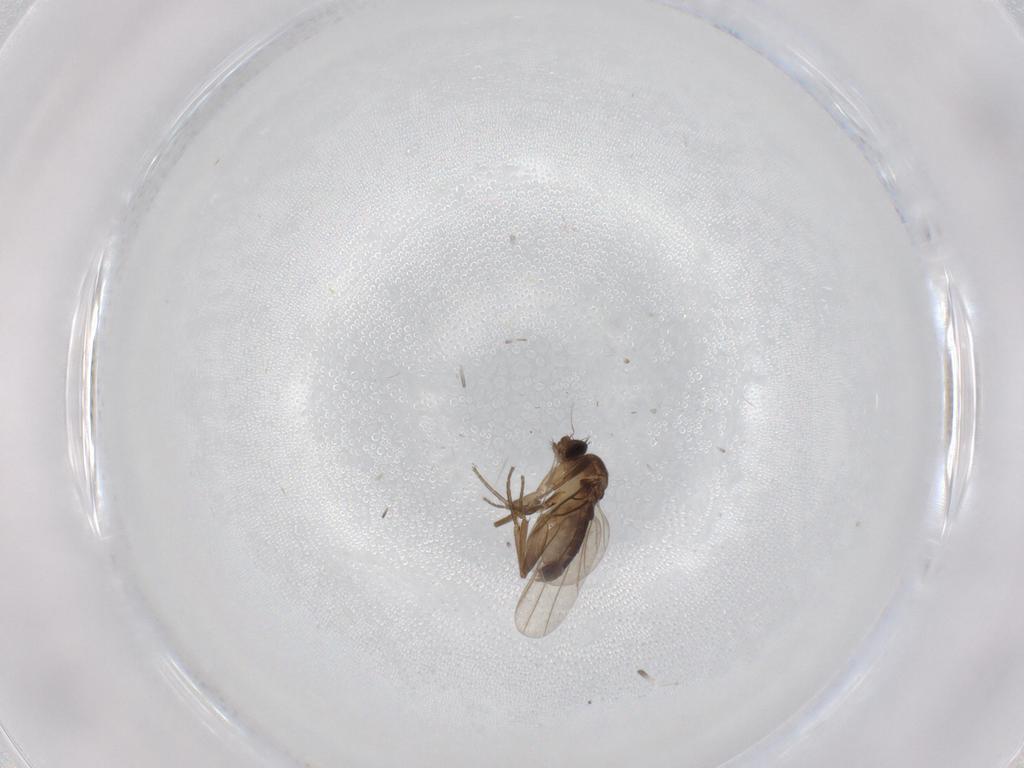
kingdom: Animalia
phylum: Arthropoda
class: Insecta
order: Diptera
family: Phoridae
